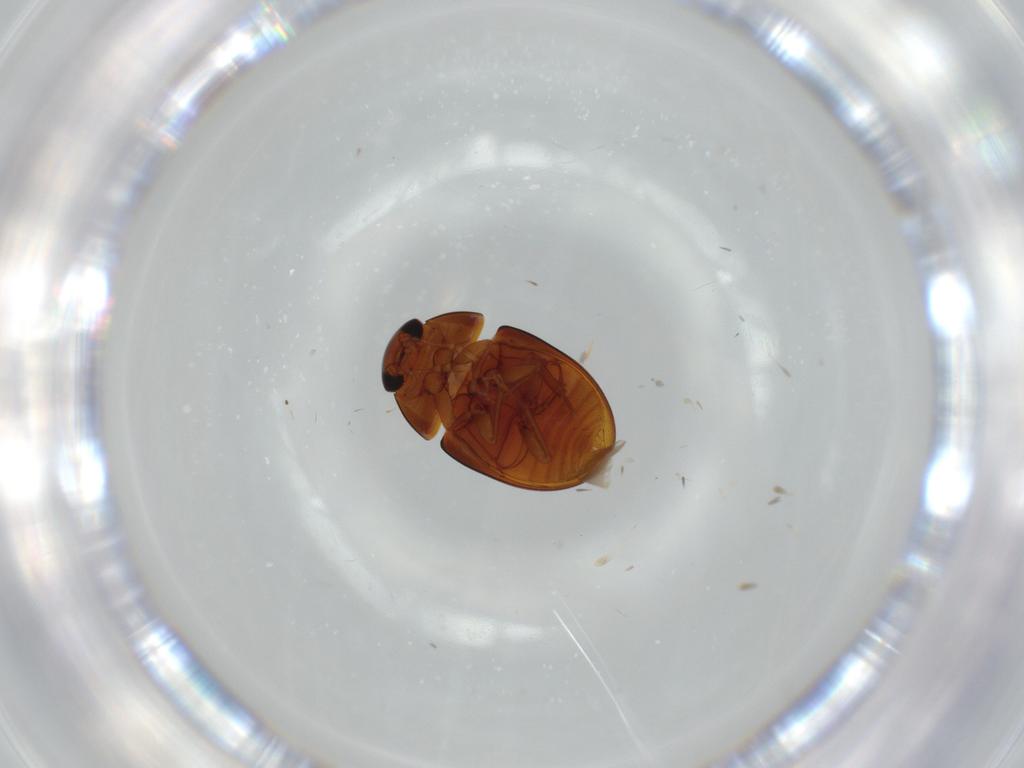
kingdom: Animalia
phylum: Arthropoda
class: Insecta
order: Coleoptera
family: Phalacridae
